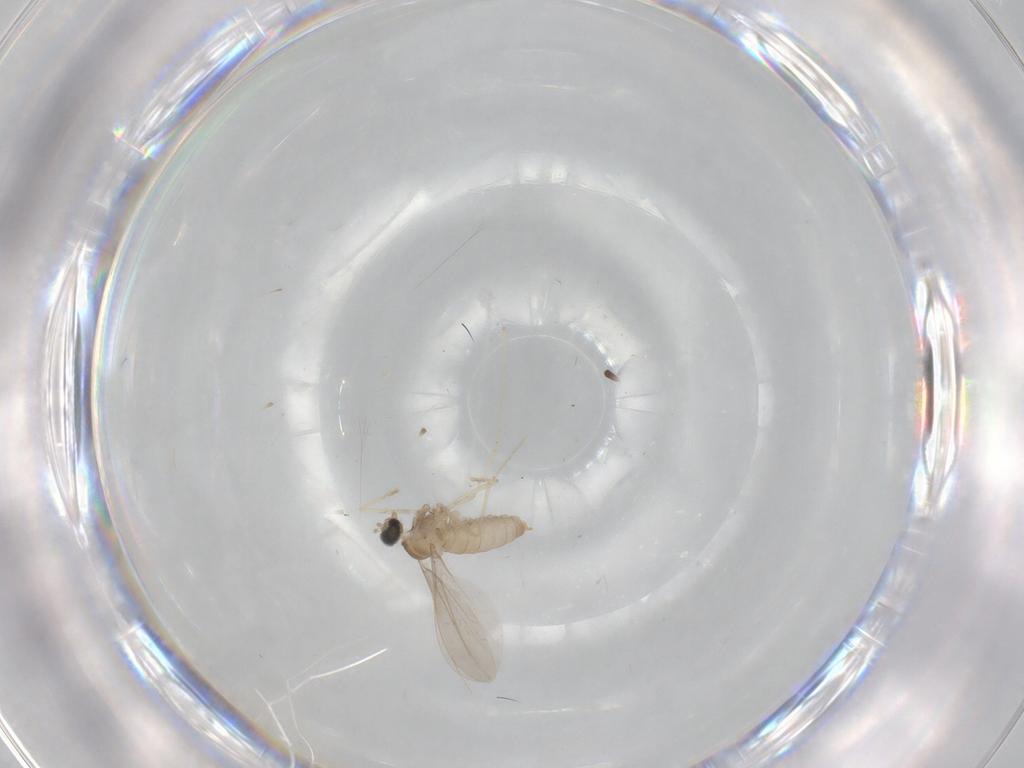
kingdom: Animalia
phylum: Arthropoda
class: Insecta
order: Diptera
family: Cecidomyiidae
